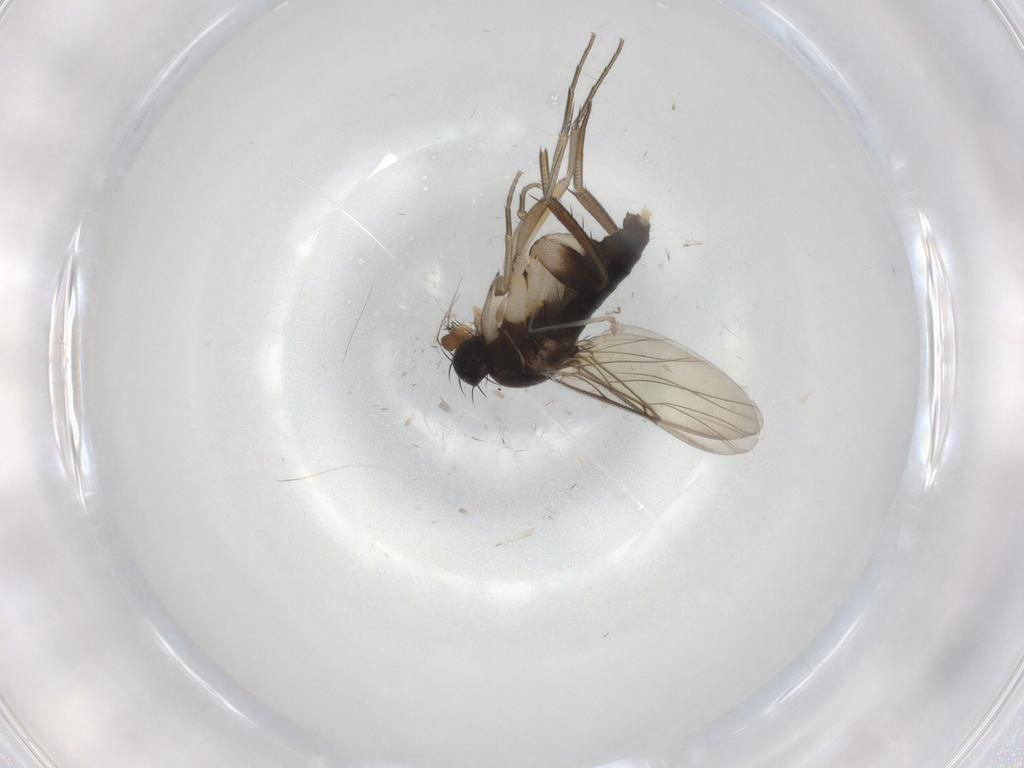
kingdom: Animalia
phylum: Arthropoda
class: Insecta
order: Diptera
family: Phoridae
